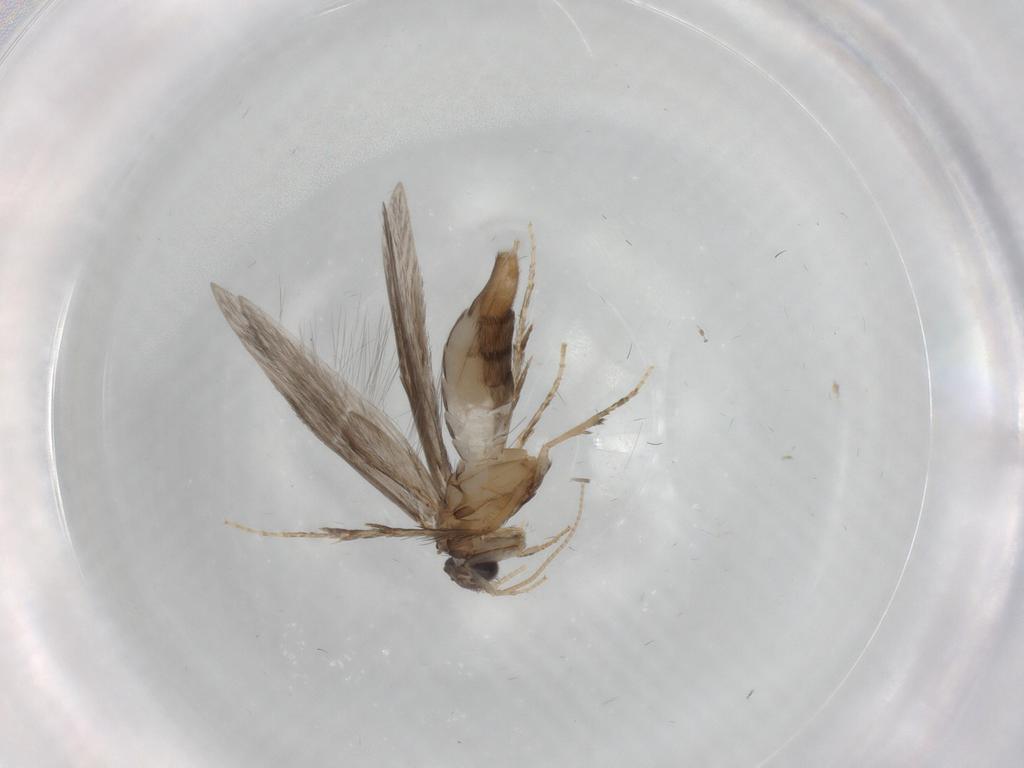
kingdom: Animalia
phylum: Arthropoda
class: Insecta
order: Trichoptera
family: Hydroptilidae
